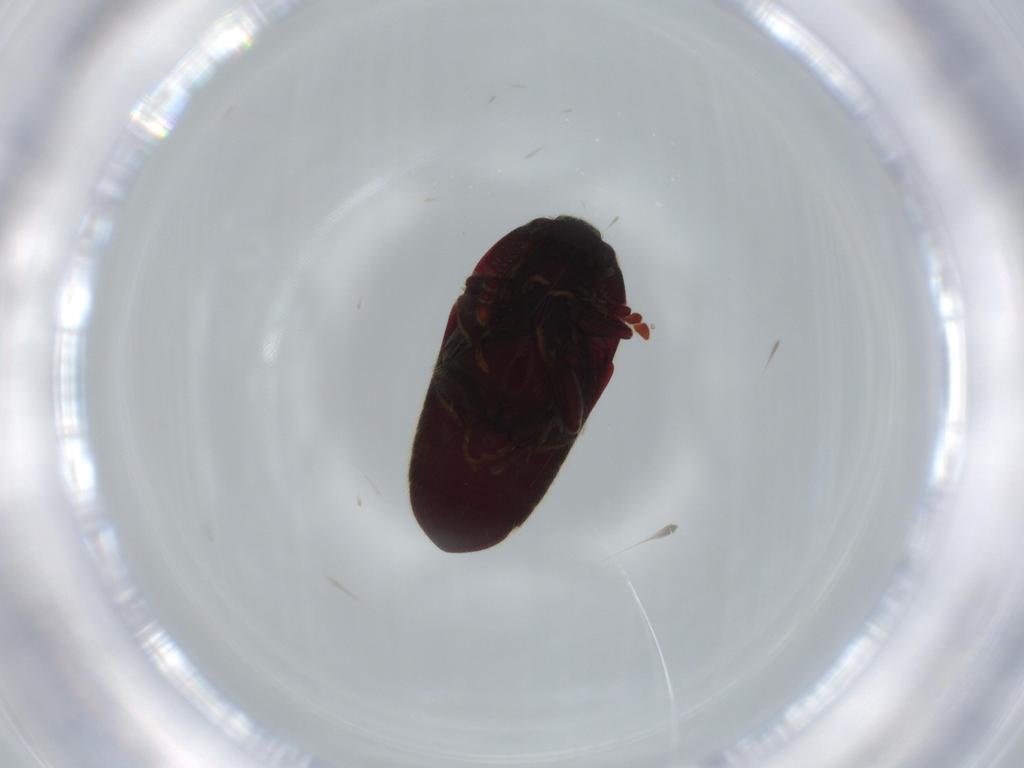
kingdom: Animalia
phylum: Arthropoda
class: Insecta
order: Coleoptera
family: Throscidae
